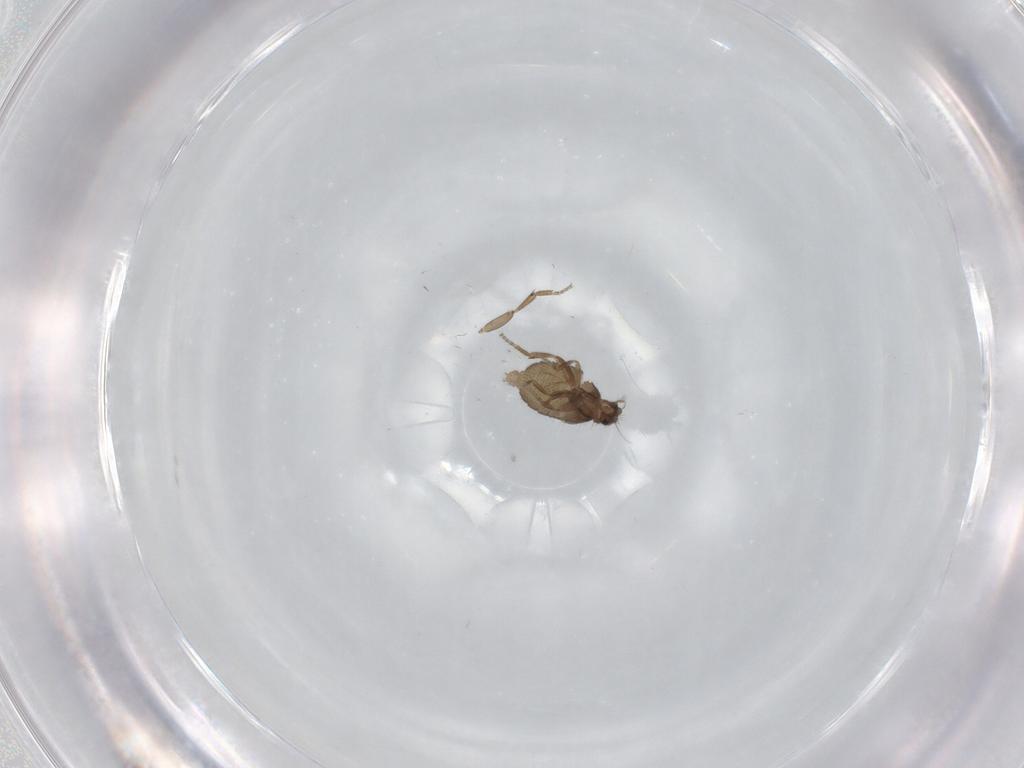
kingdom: Animalia
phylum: Arthropoda
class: Insecta
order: Diptera
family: Phoridae
